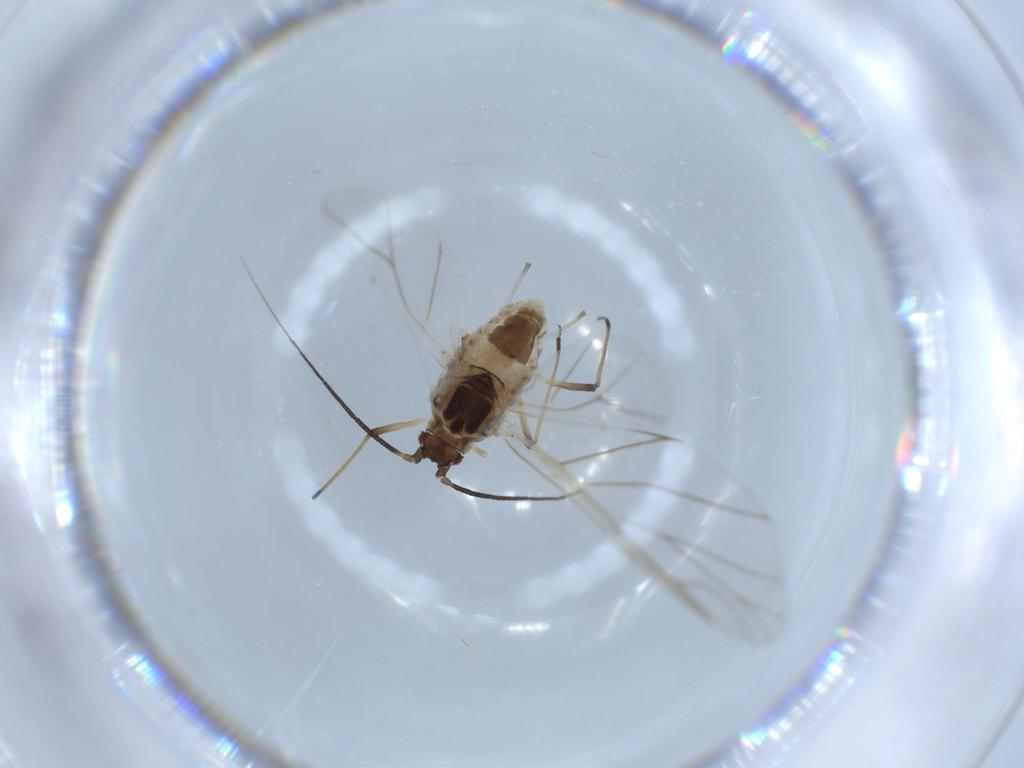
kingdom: Animalia
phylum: Arthropoda
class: Insecta
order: Hemiptera
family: Aphididae
